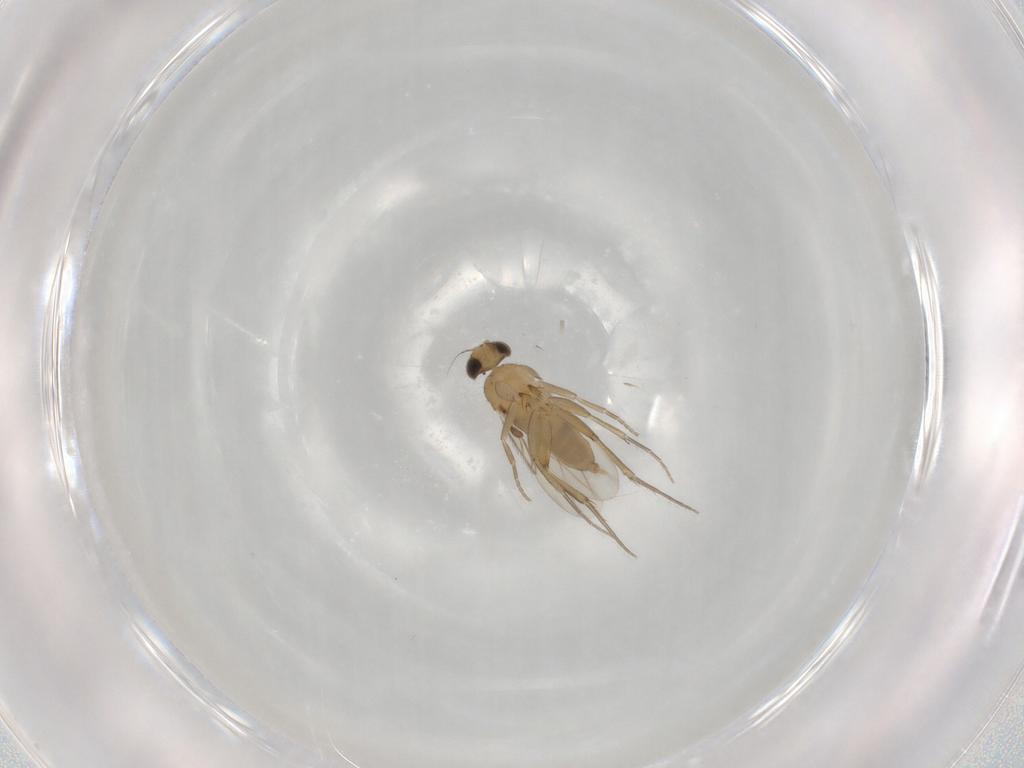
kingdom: Animalia
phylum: Arthropoda
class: Insecta
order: Diptera
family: Phoridae
